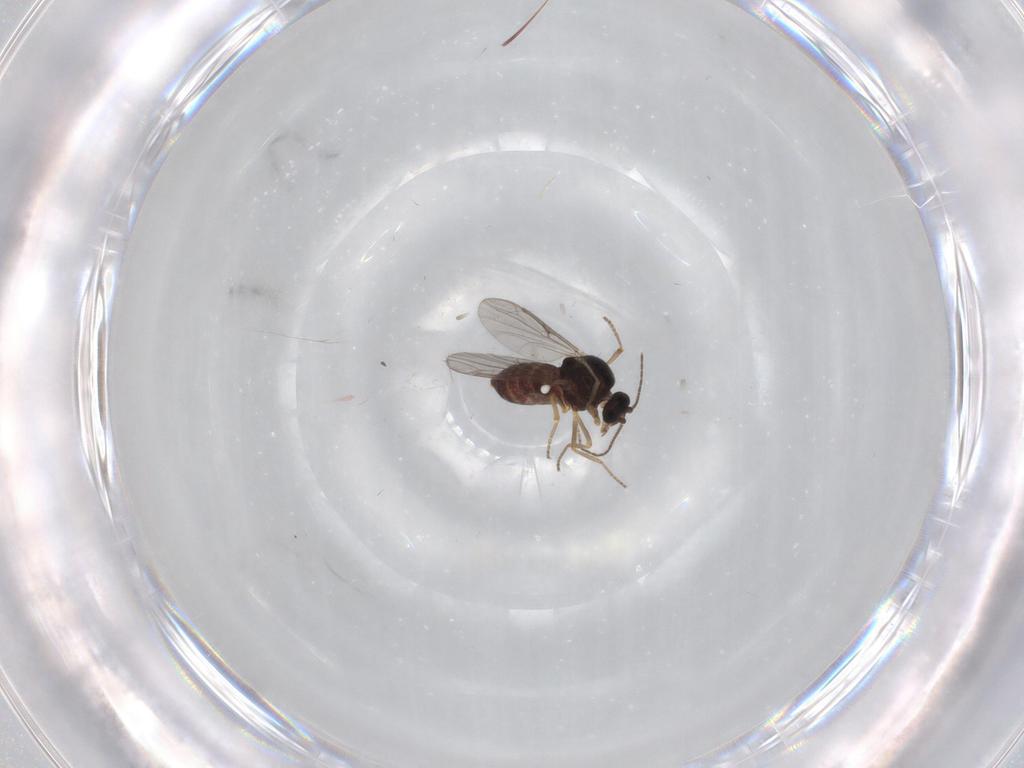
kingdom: Animalia
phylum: Arthropoda
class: Insecta
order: Diptera
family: Ceratopogonidae
